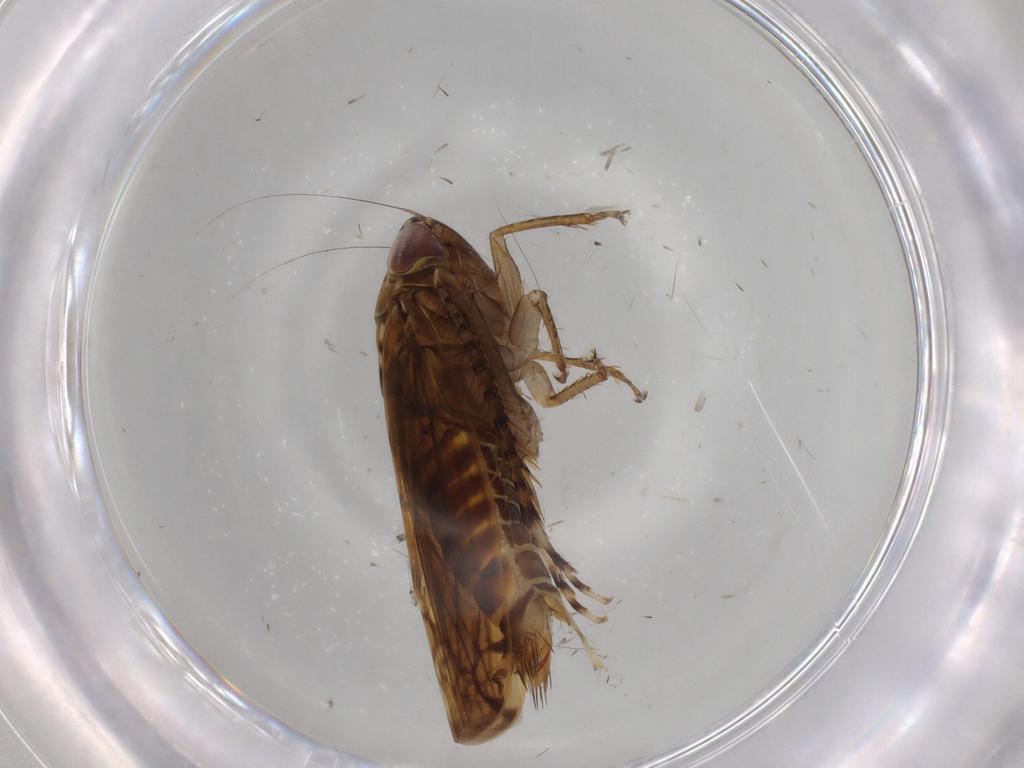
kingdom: Animalia
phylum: Arthropoda
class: Insecta
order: Hemiptera
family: Cicadellidae
